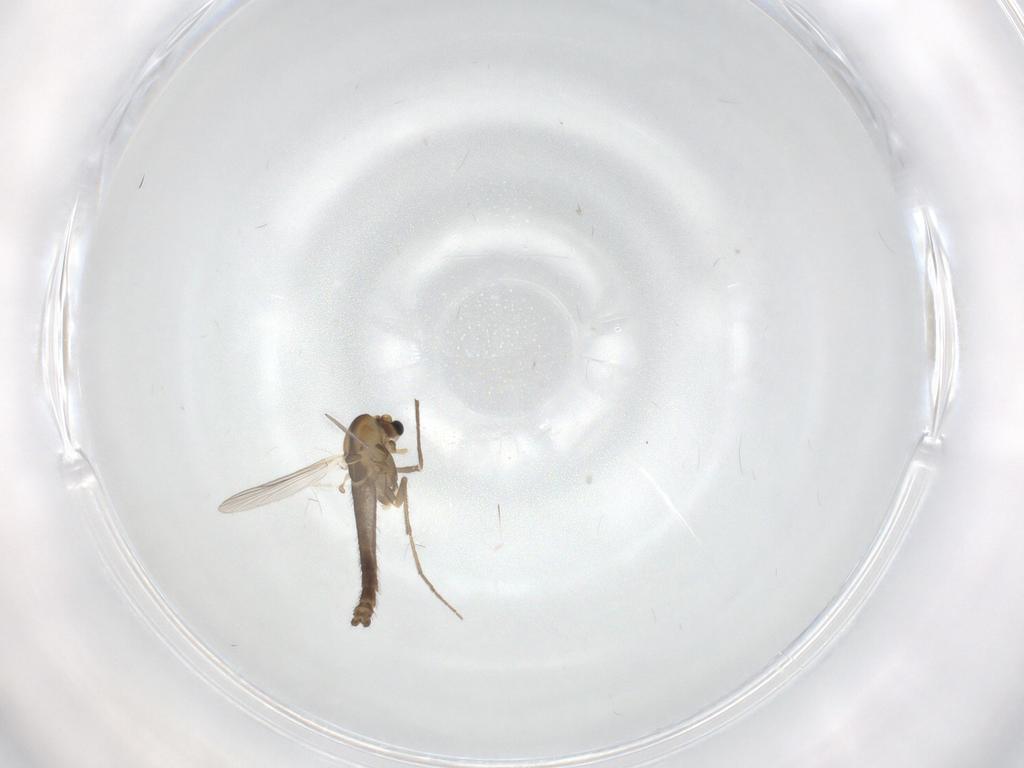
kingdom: Animalia
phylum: Arthropoda
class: Insecta
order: Diptera
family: Chironomidae
